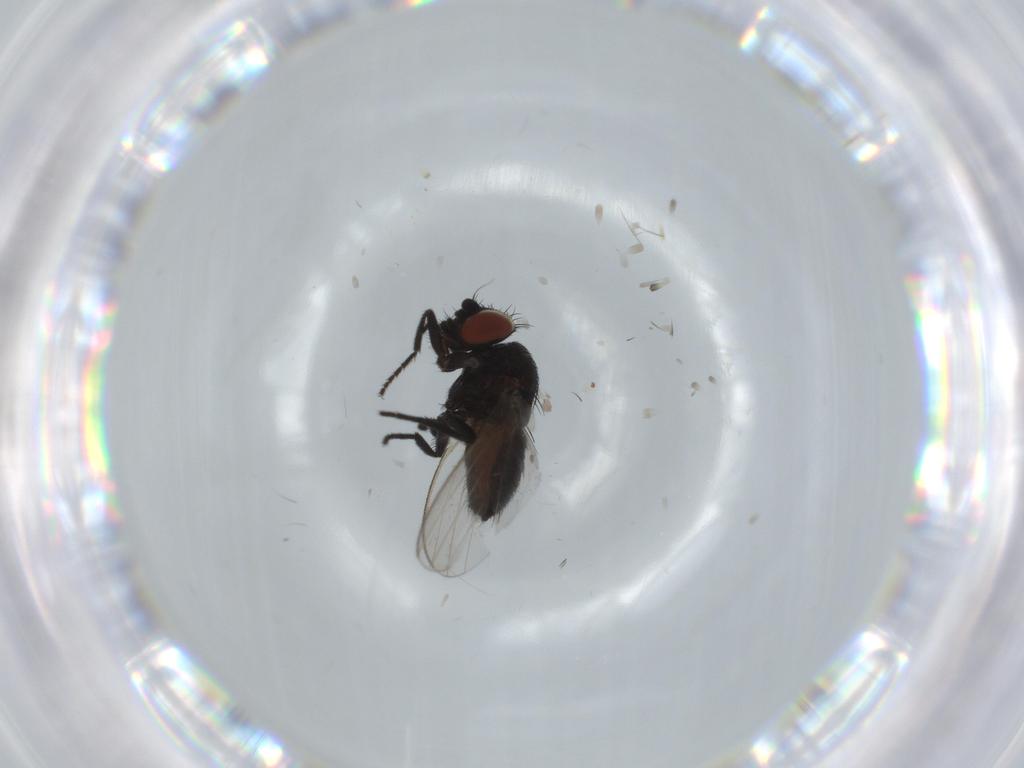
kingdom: Animalia
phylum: Arthropoda
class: Insecta
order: Diptera
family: Milichiidae
